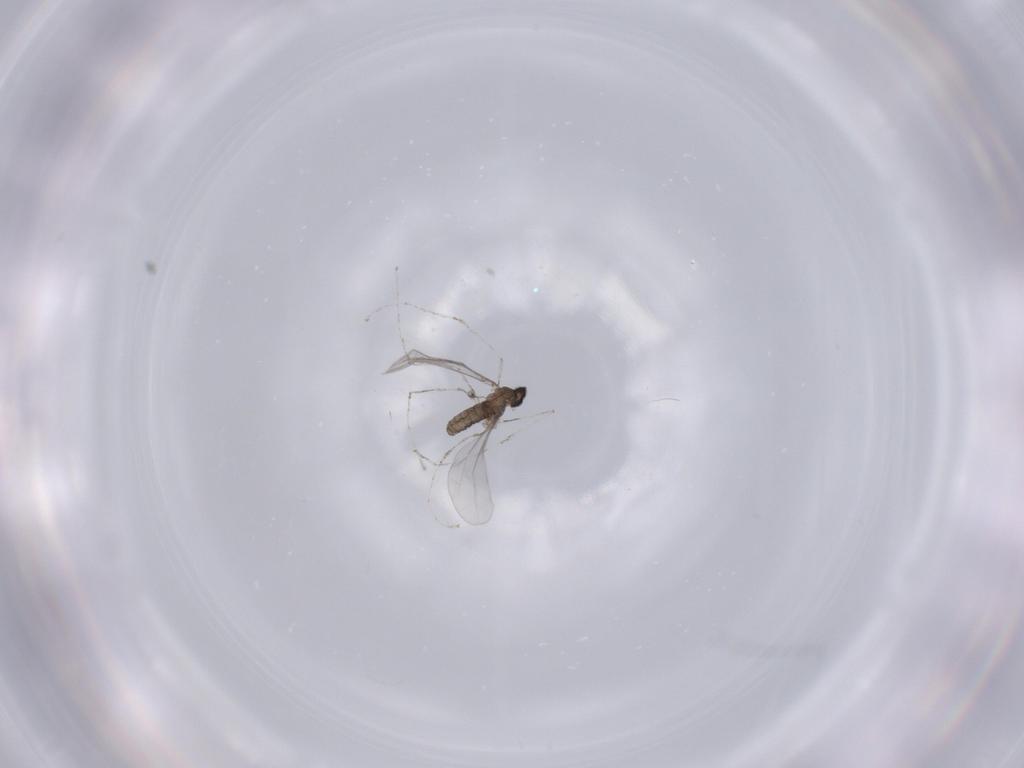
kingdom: Animalia
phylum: Arthropoda
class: Insecta
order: Diptera
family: Cecidomyiidae
